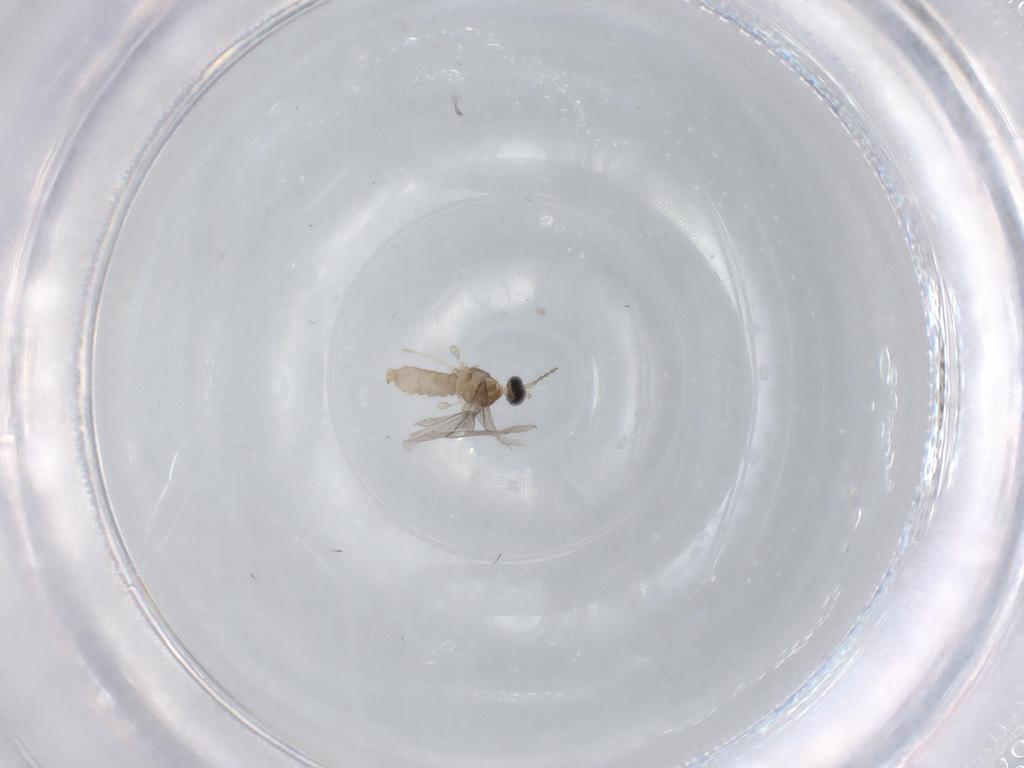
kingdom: Animalia
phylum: Arthropoda
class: Insecta
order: Diptera
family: Cecidomyiidae
